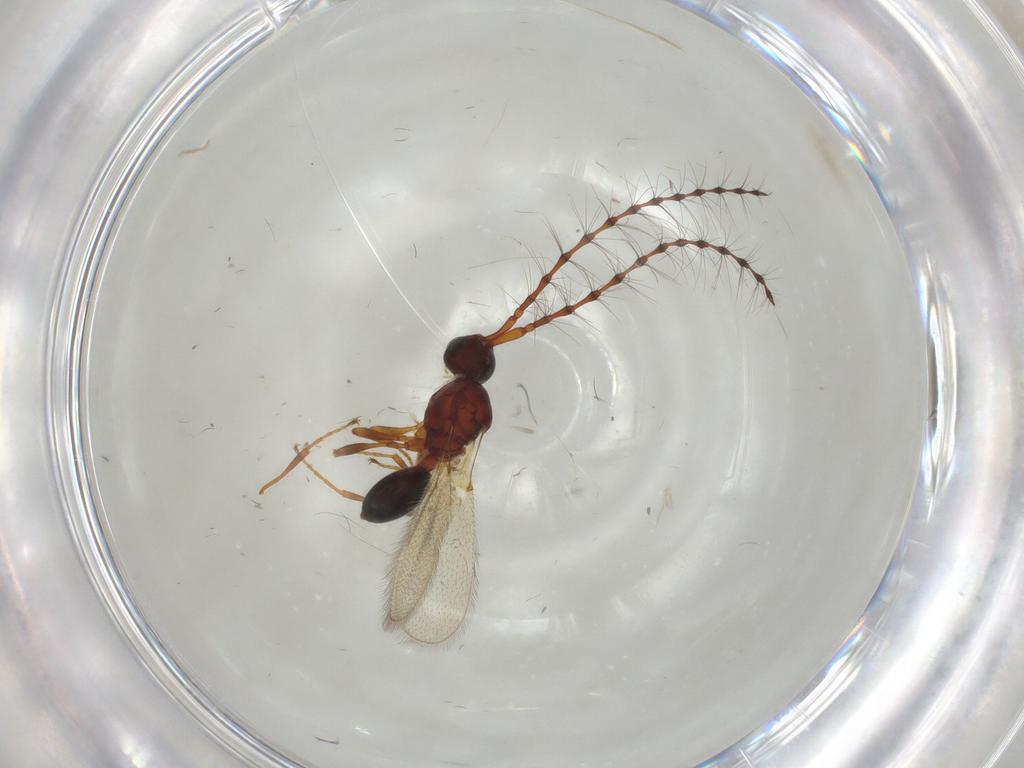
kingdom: Animalia
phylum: Arthropoda
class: Insecta
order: Hymenoptera
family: Diapriidae
